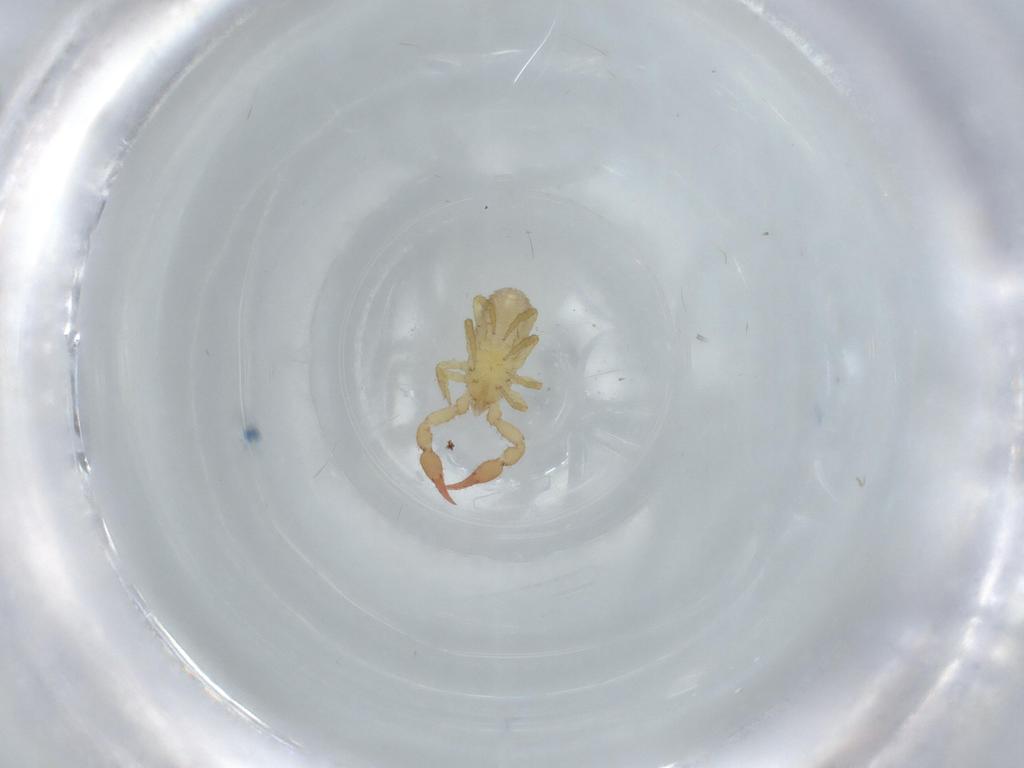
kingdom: Animalia
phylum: Arthropoda
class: Arachnida
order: Pseudoscorpiones
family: Chernetidae
